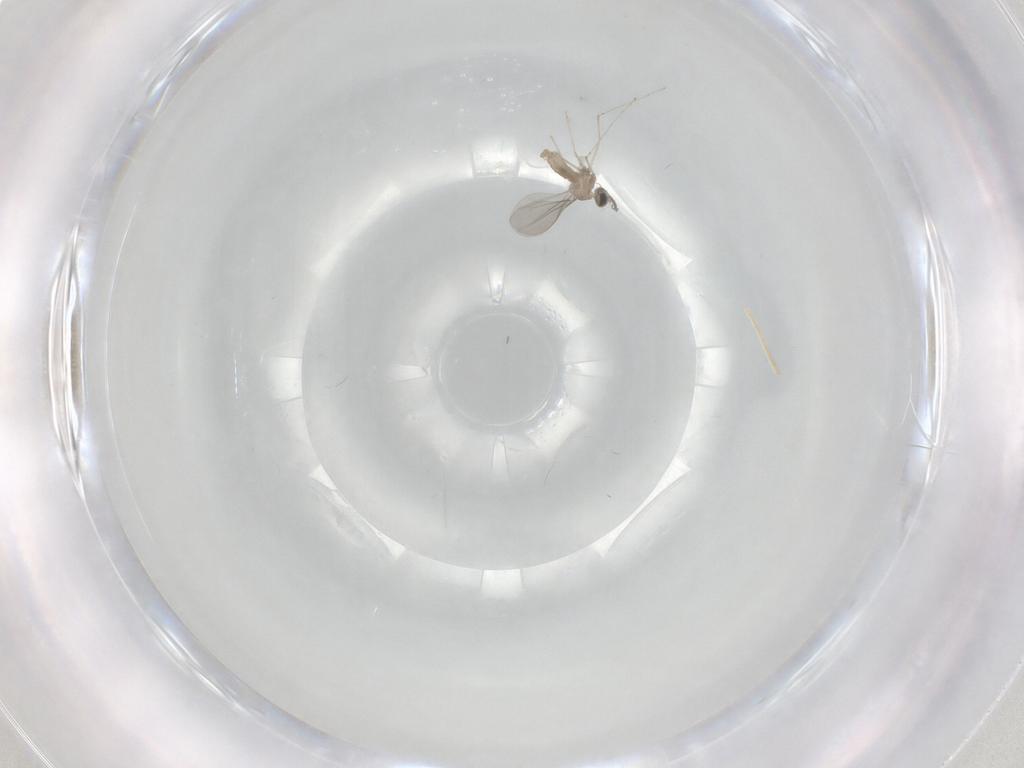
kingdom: Animalia
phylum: Arthropoda
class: Insecta
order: Diptera
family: Cecidomyiidae
